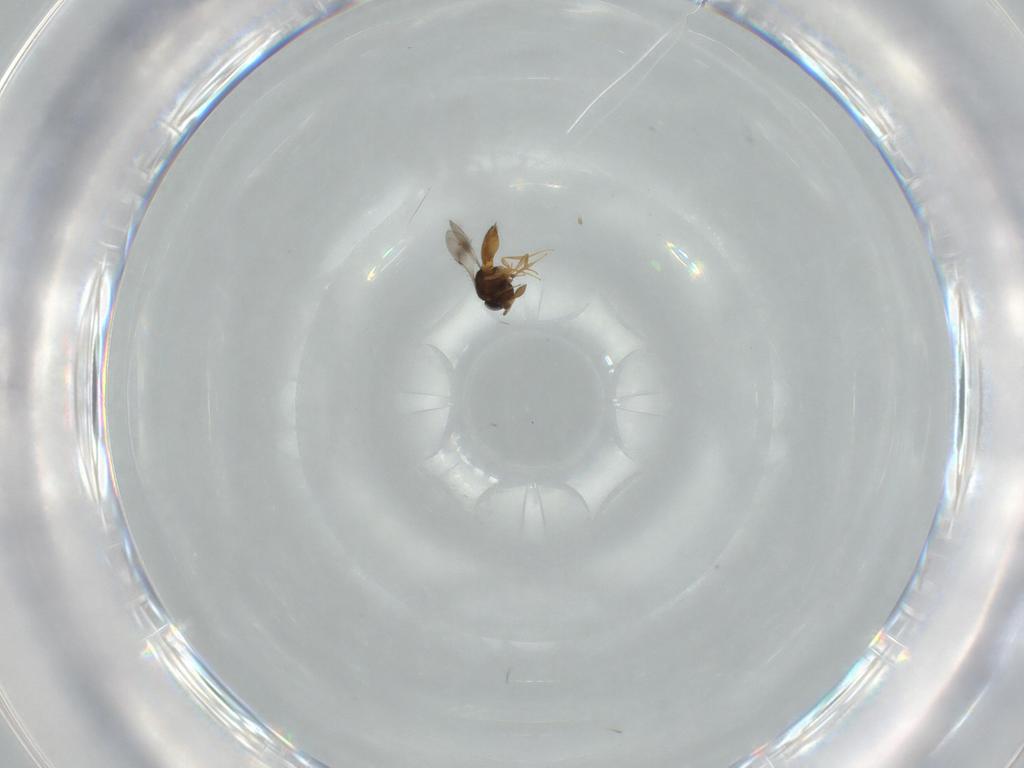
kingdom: Animalia
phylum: Arthropoda
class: Insecta
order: Hymenoptera
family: Scelionidae
